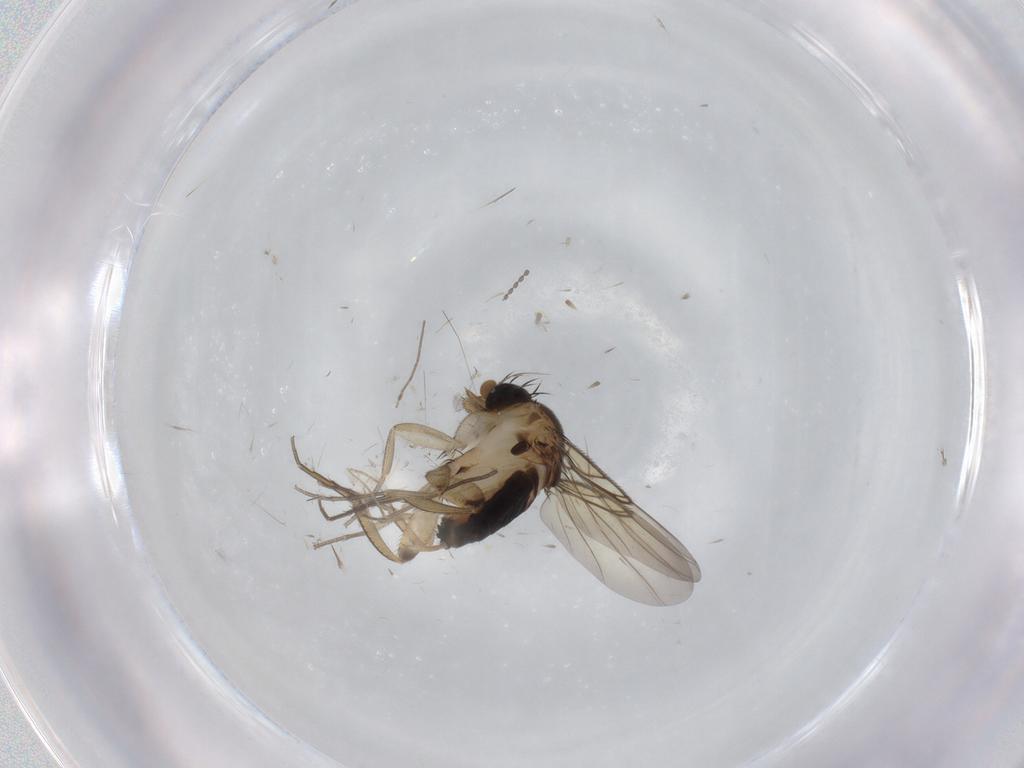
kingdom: Animalia
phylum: Arthropoda
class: Insecta
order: Diptera
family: Phoridae
